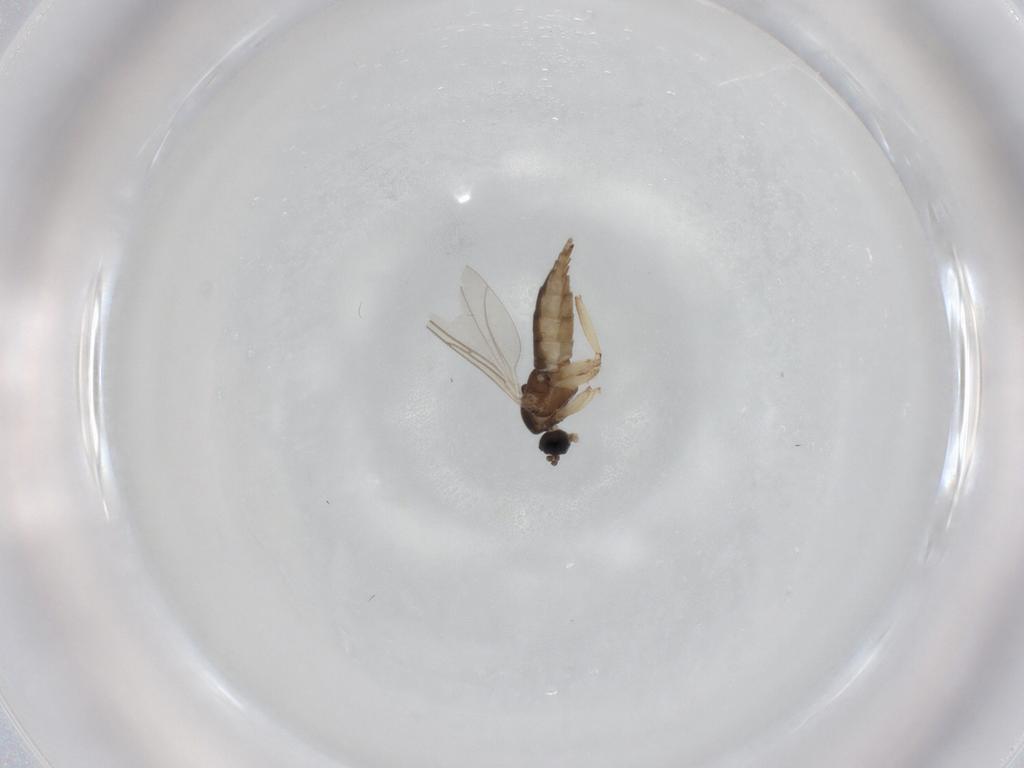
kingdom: Animalia
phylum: Arthropoda
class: Insecta
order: Diptera
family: Sciaridae
